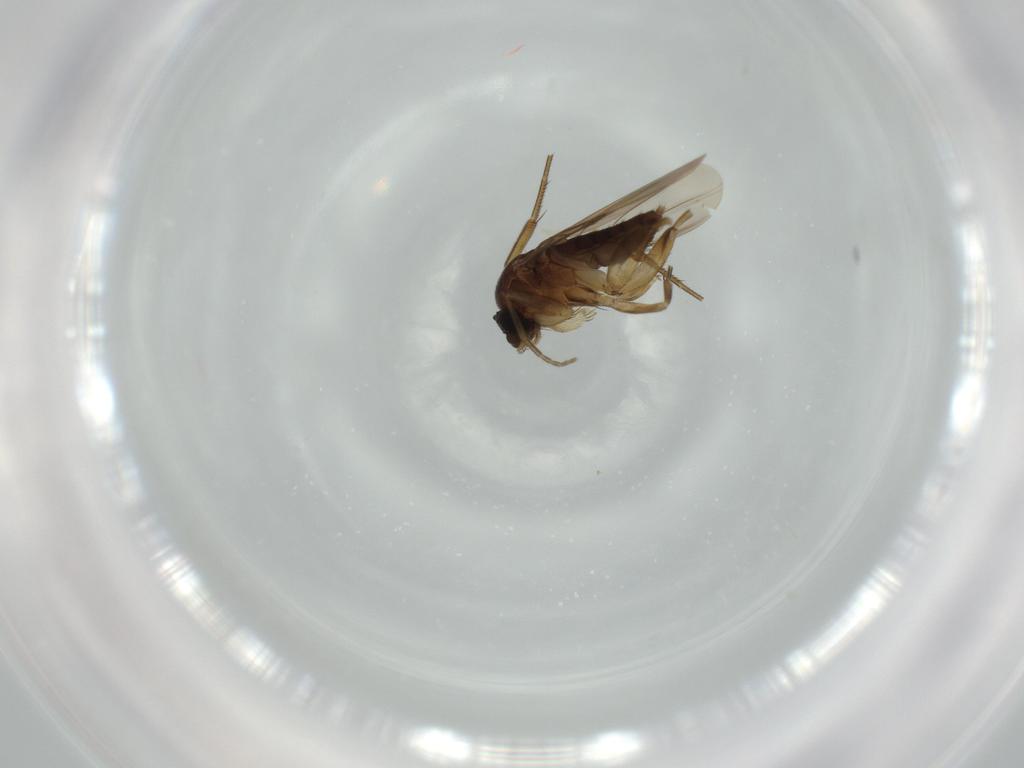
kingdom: Animalia
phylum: Arthropoda
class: Insecta
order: Diptera
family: Phoridae
